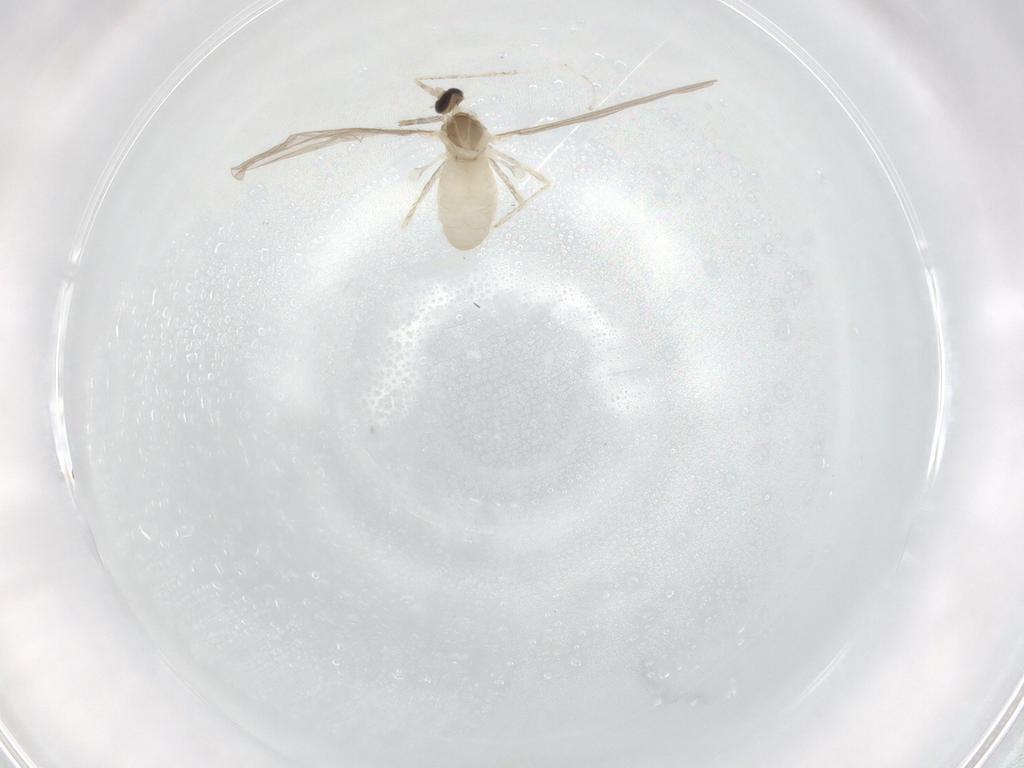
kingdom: Animalia
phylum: Arthropoda
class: Insecta
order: Diptera
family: Cecidomyiidae
